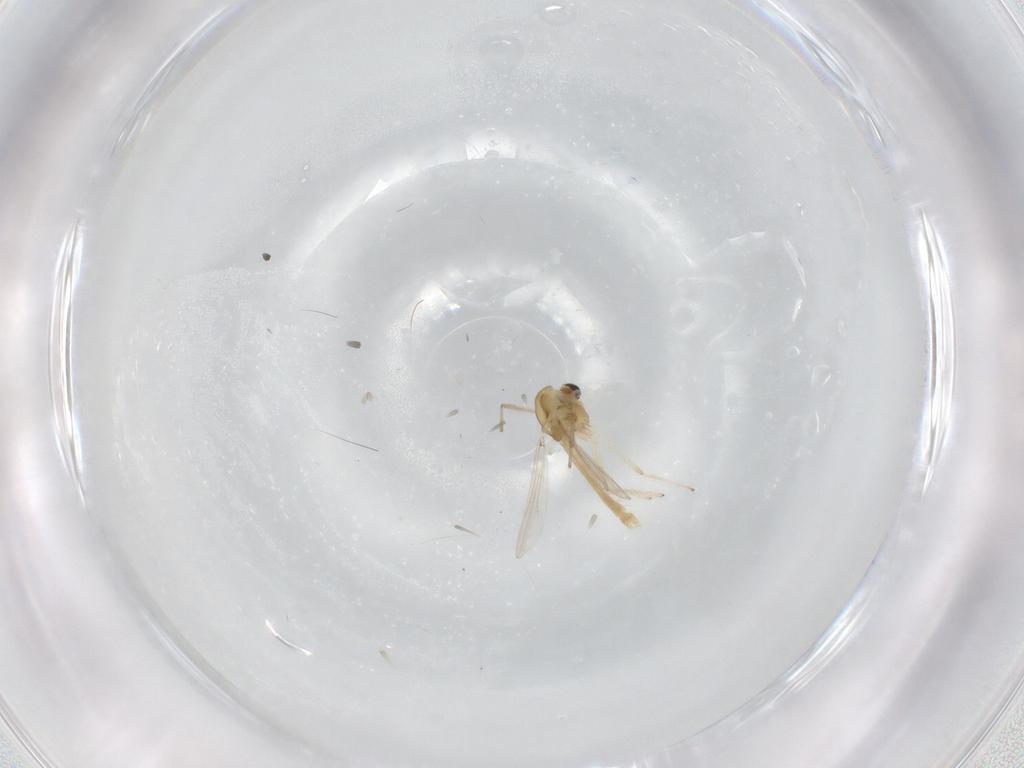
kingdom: Animalia
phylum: Arthropoda
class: Insecta
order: Diptera
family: Chironomidae
